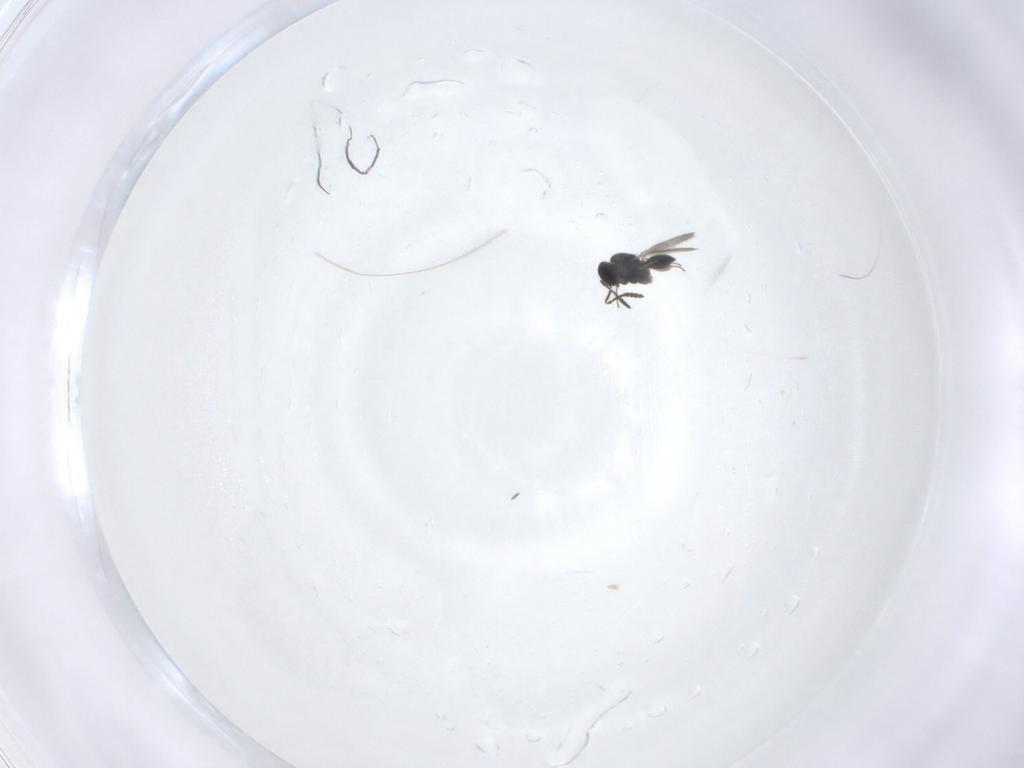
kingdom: Animalia
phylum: Arthropoda
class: Insecta
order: Hymenoptera
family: Scelionidae
